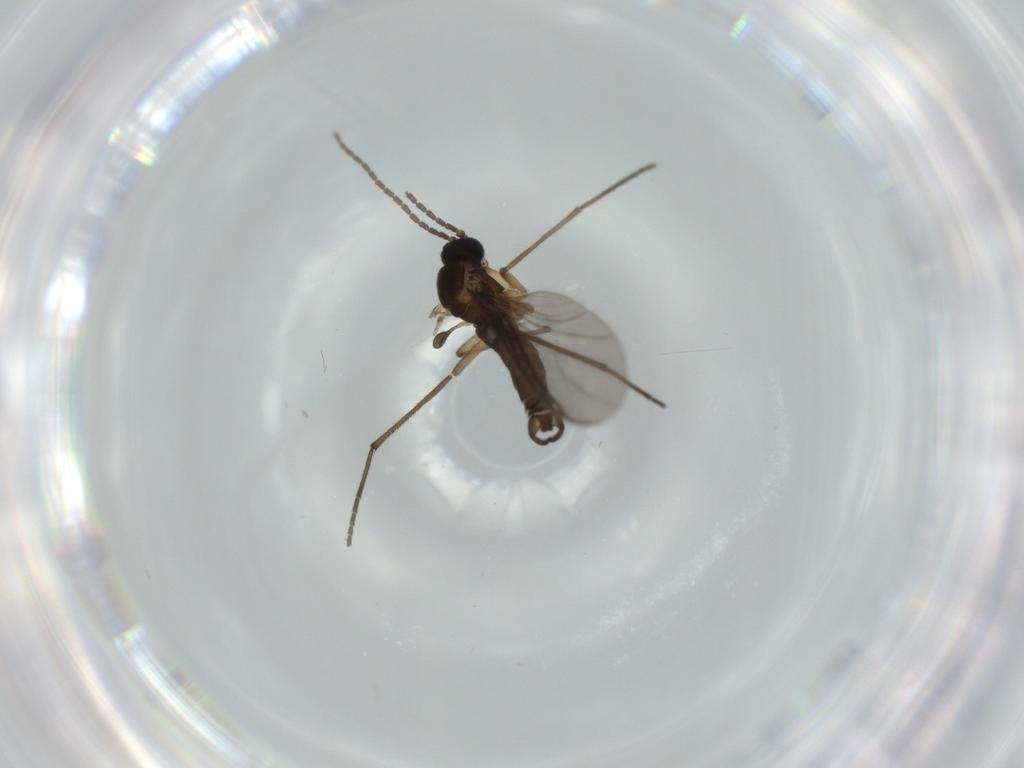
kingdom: Animalia
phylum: Arthropoda
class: Insecta
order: Diptera
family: Sciaridae
